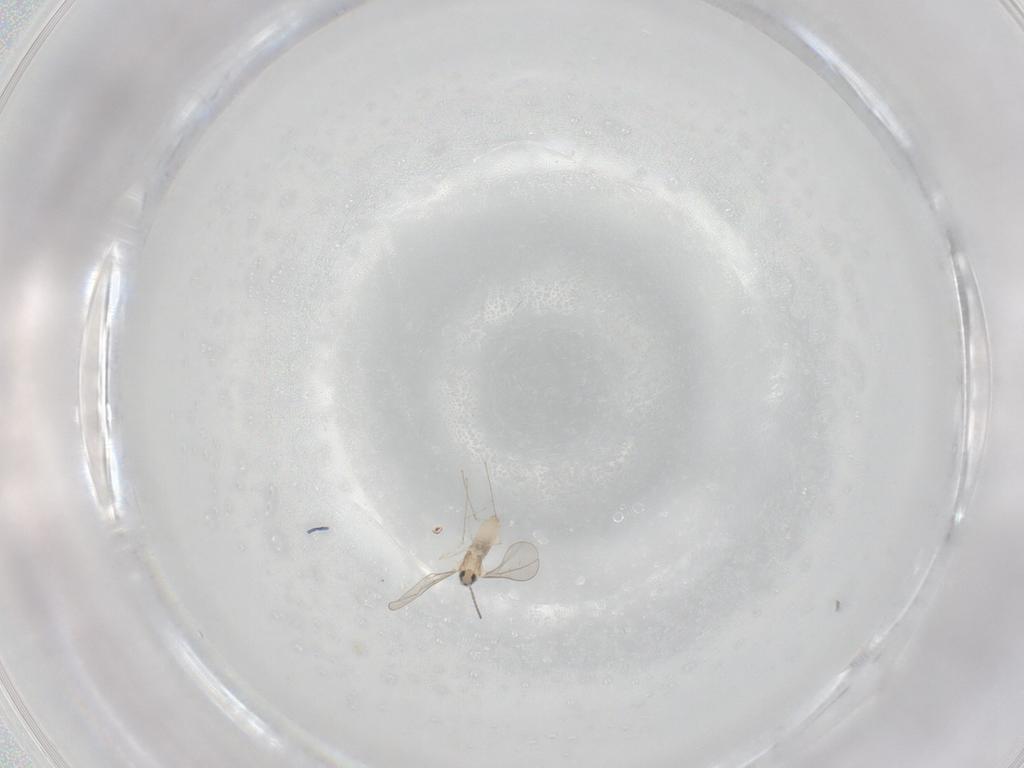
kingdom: Animalia
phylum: Arthropoda
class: Insecta
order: Diptera
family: Cecidomyiidae
